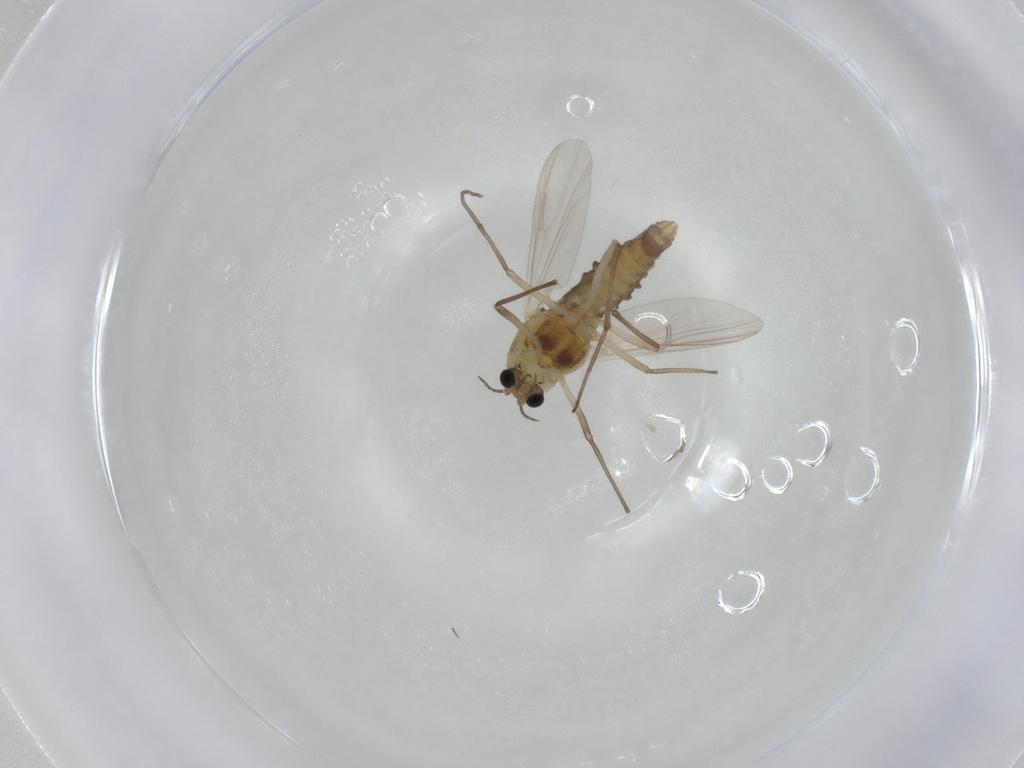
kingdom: Animalia
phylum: Arthropoda
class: Insecta
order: Diptera
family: Chironomidae
